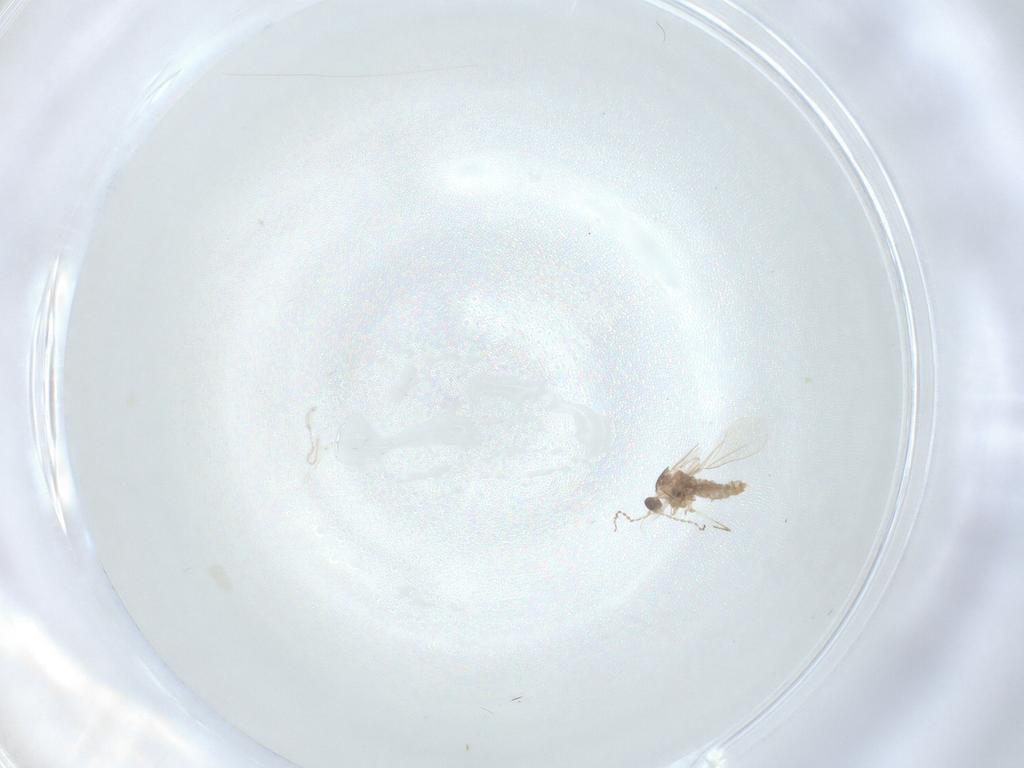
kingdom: Animalia
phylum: Arthropoda
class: Insecta
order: Diptera
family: Cecidomyiidae
